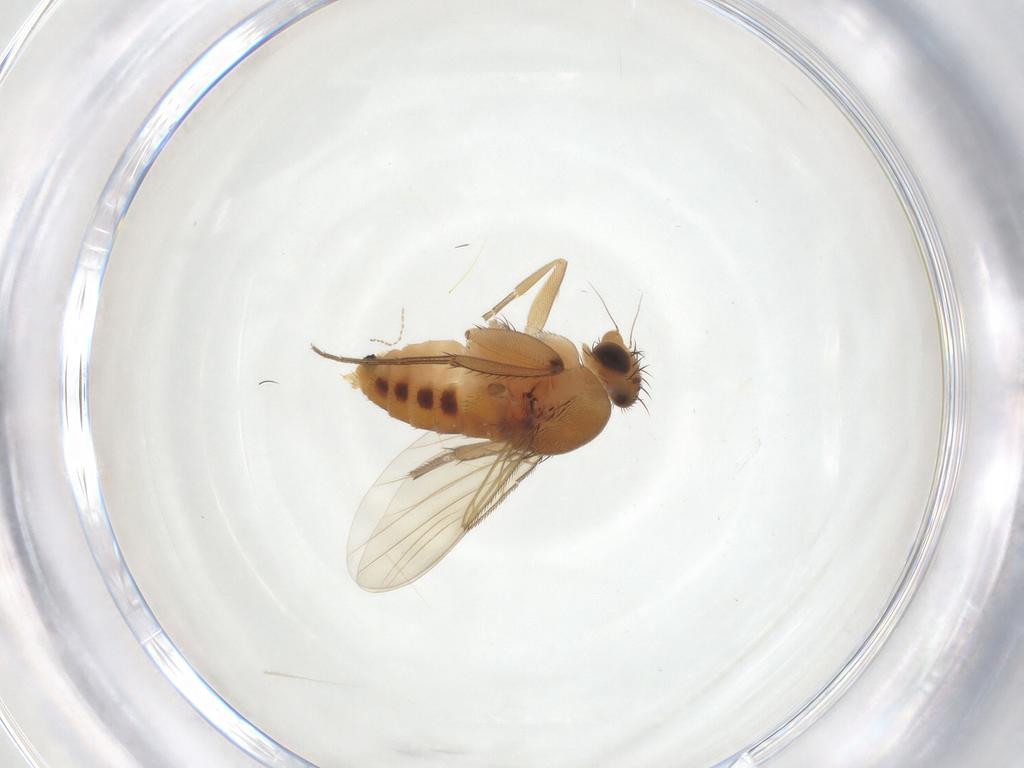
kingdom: Animalia
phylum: Arthropoda
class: Insecta
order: Diptera
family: Phoridae
